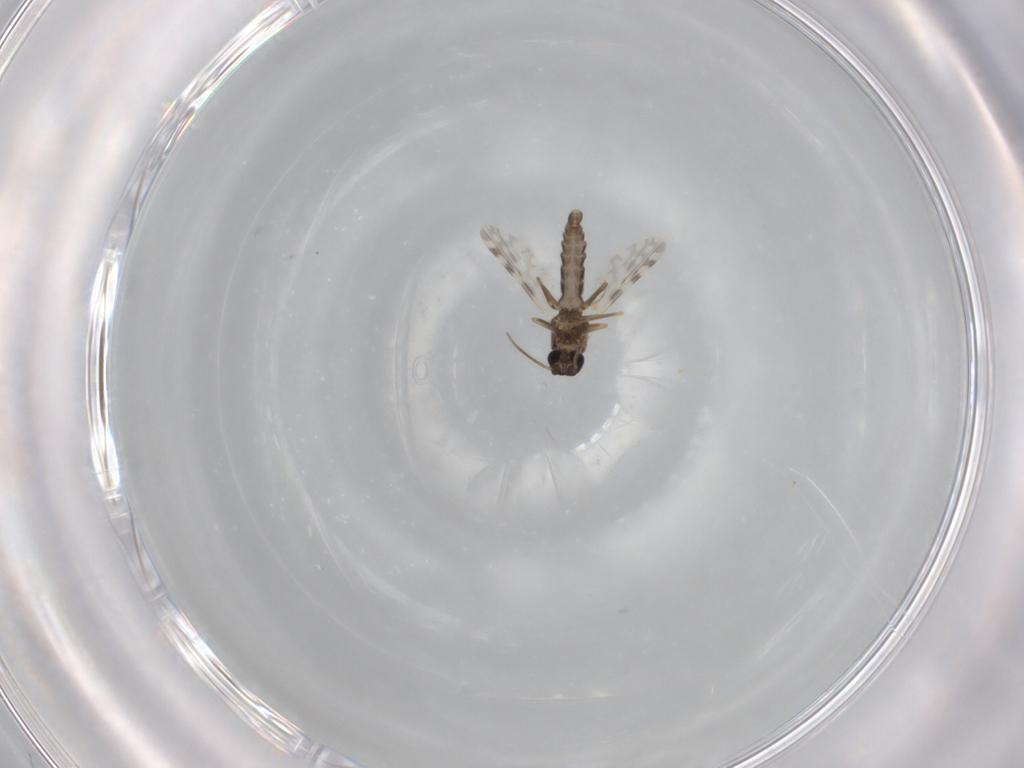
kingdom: Animalia
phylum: Arthropoda
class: Insecta
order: Diptera
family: Ceratopogonidae
